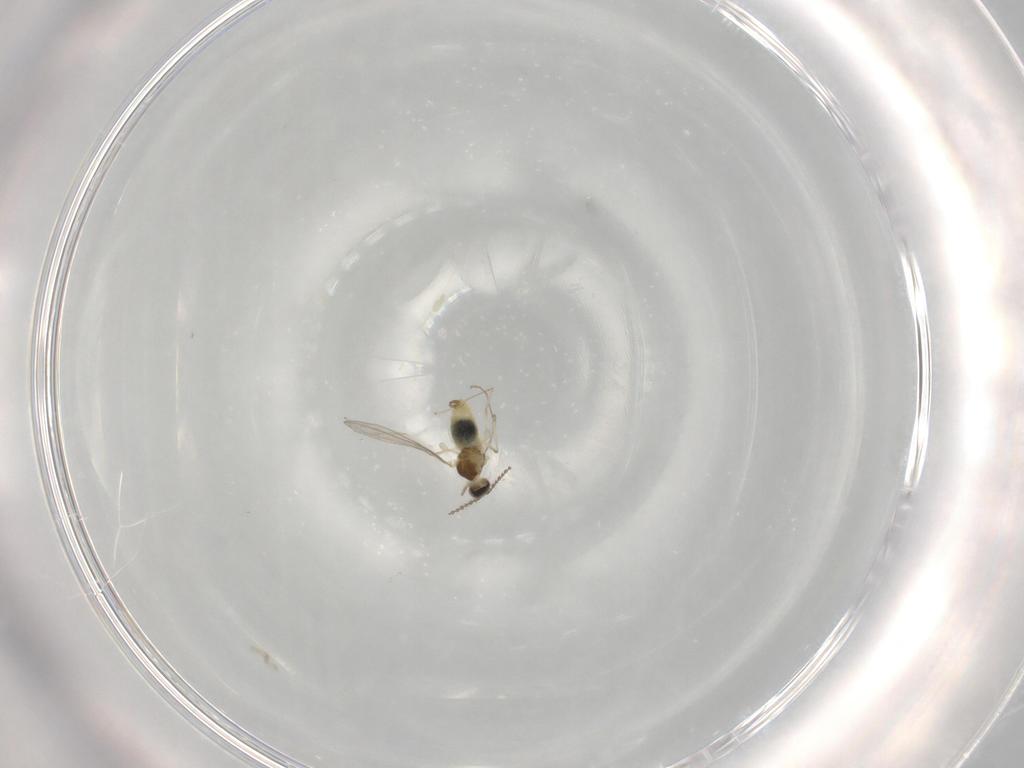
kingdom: Animalia
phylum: Arthropoda
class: Insecta
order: Diptera
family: Cecidomyiidae
